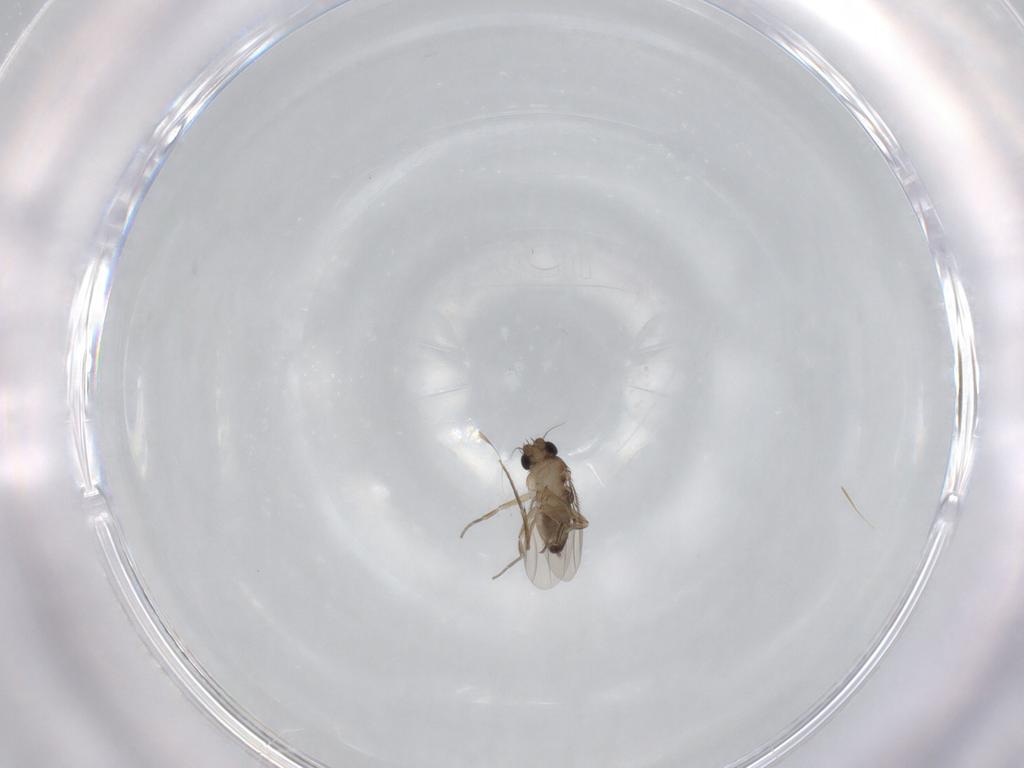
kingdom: Animalia
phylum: Arthropoda
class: Insecta
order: Diptera
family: Phoridae
